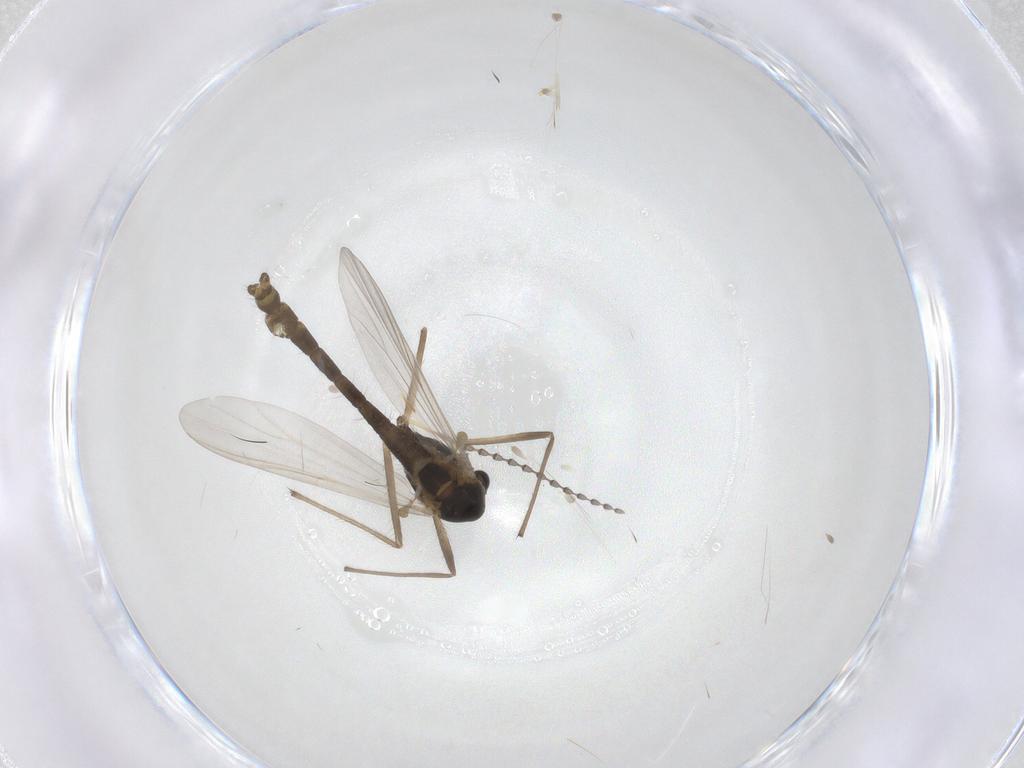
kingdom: Animalia
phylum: Arthropoda
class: Insecta
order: Diptera
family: Chironomidae
